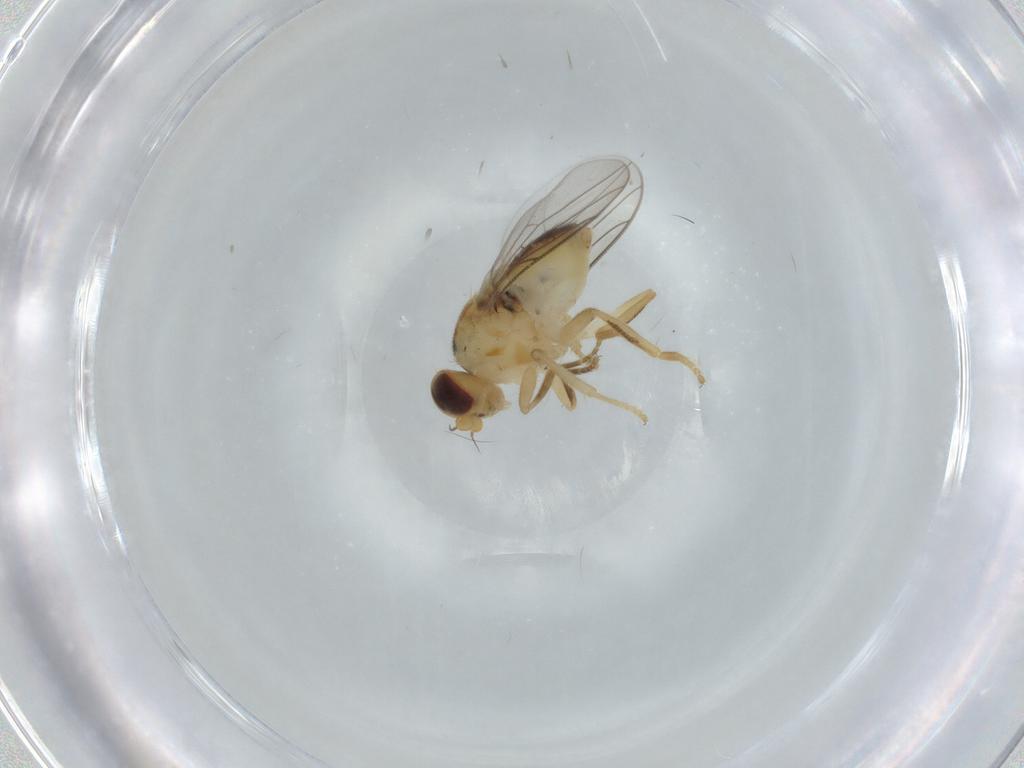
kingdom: Animalia
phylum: Arthropoda
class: Insecta
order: Diptera
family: Chloropidae
